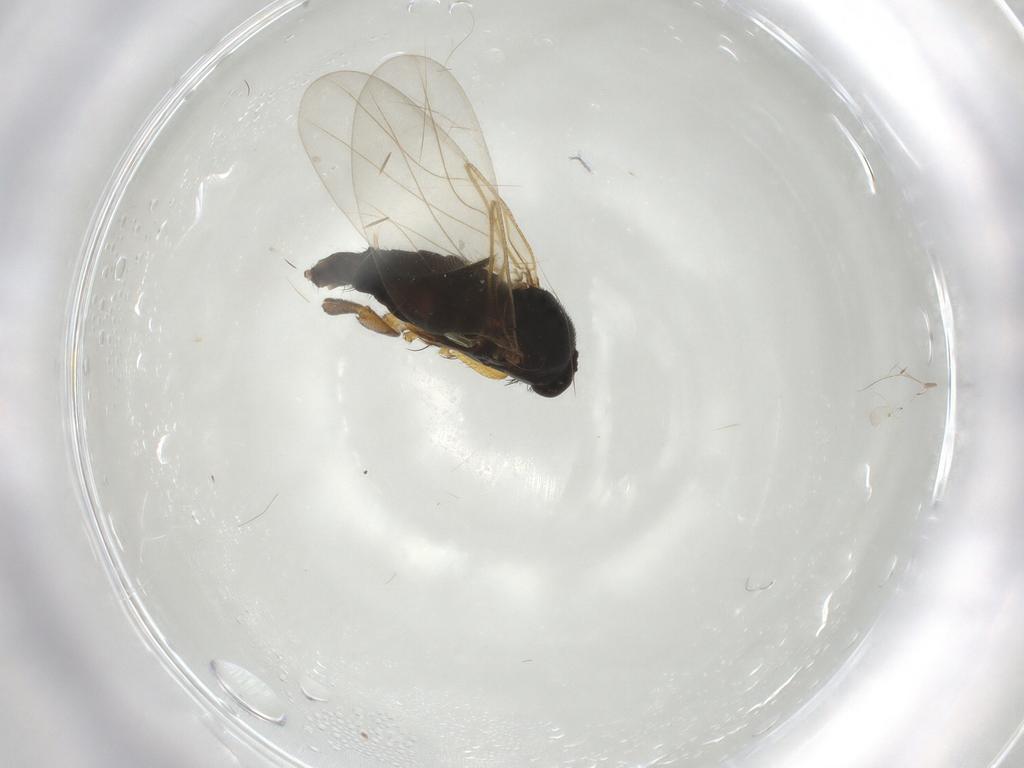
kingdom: Animalia
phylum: Arthropoda
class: Insecta
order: Diptera
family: Phoridae
